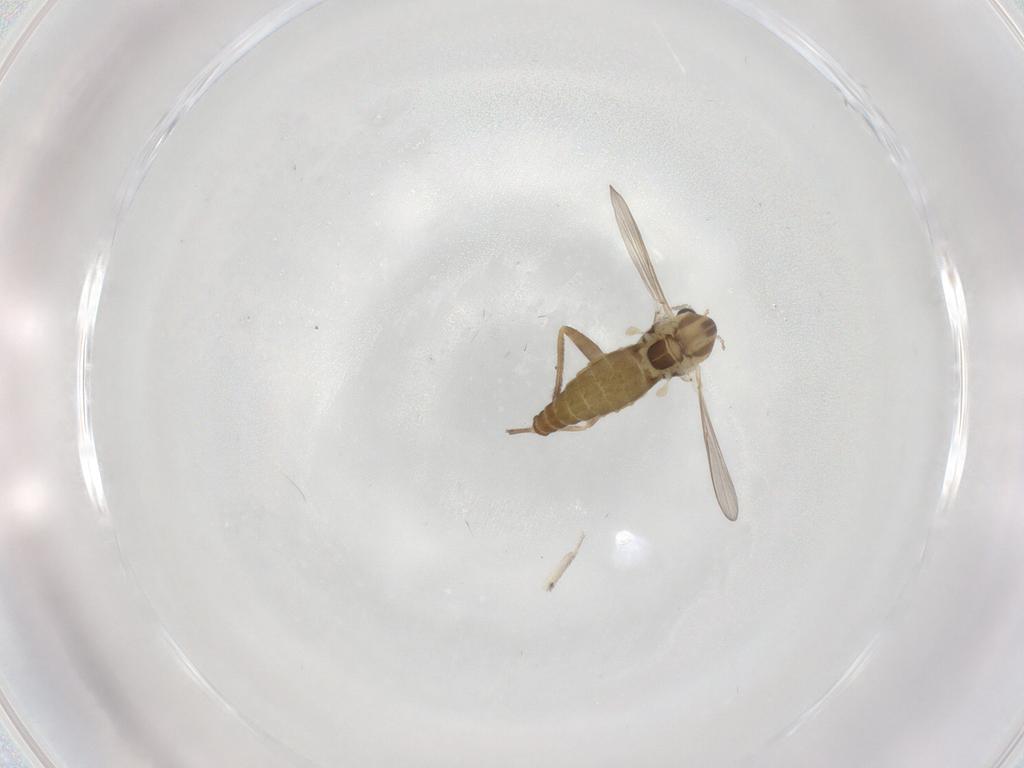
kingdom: Animalia
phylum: Arthropoda
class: Insecta
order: Diptera
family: Chironomidae
